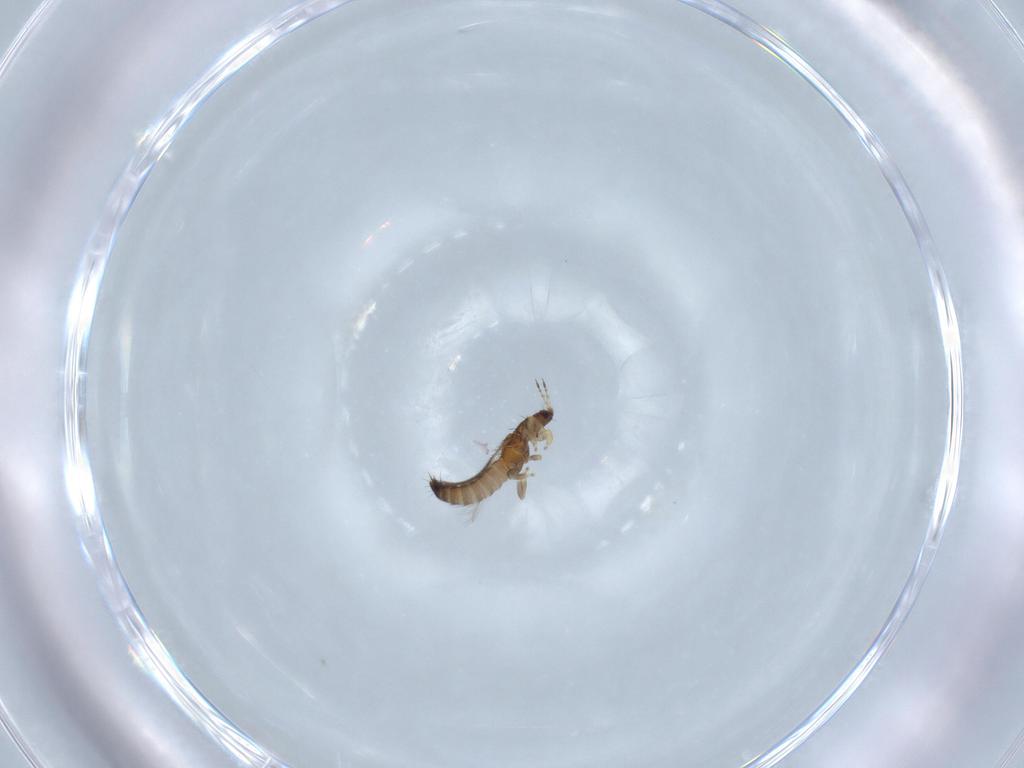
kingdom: Animalia
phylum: Arthropoda
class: Insecta
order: Thysanoptera
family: Thripidae
